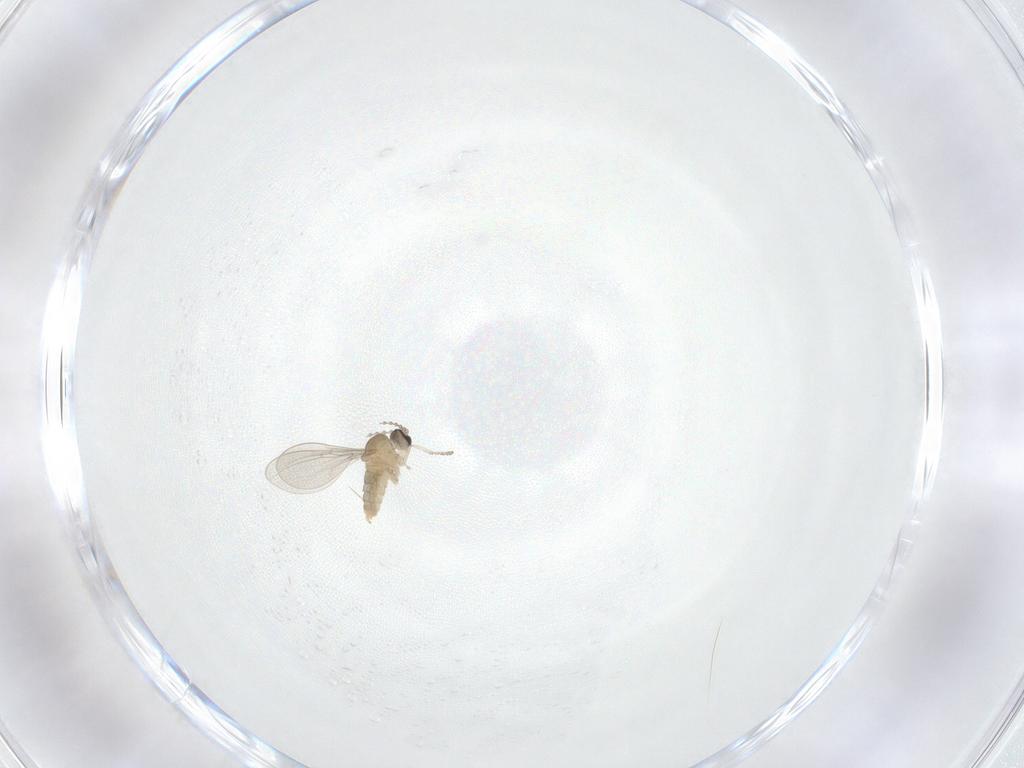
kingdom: Animalia
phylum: Arthropoda
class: Insecta
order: Diptera
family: Cecidomyiidae
